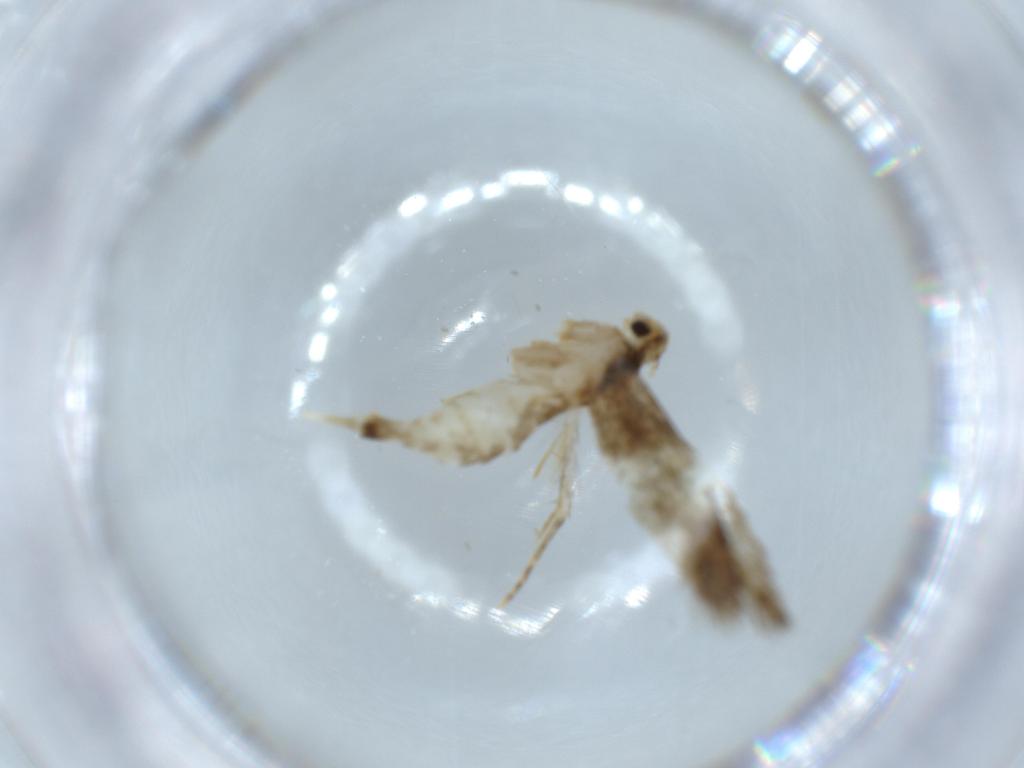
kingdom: Animalia
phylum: Arthropoda
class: Insecta
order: Lepidoptera
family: Tineidae
